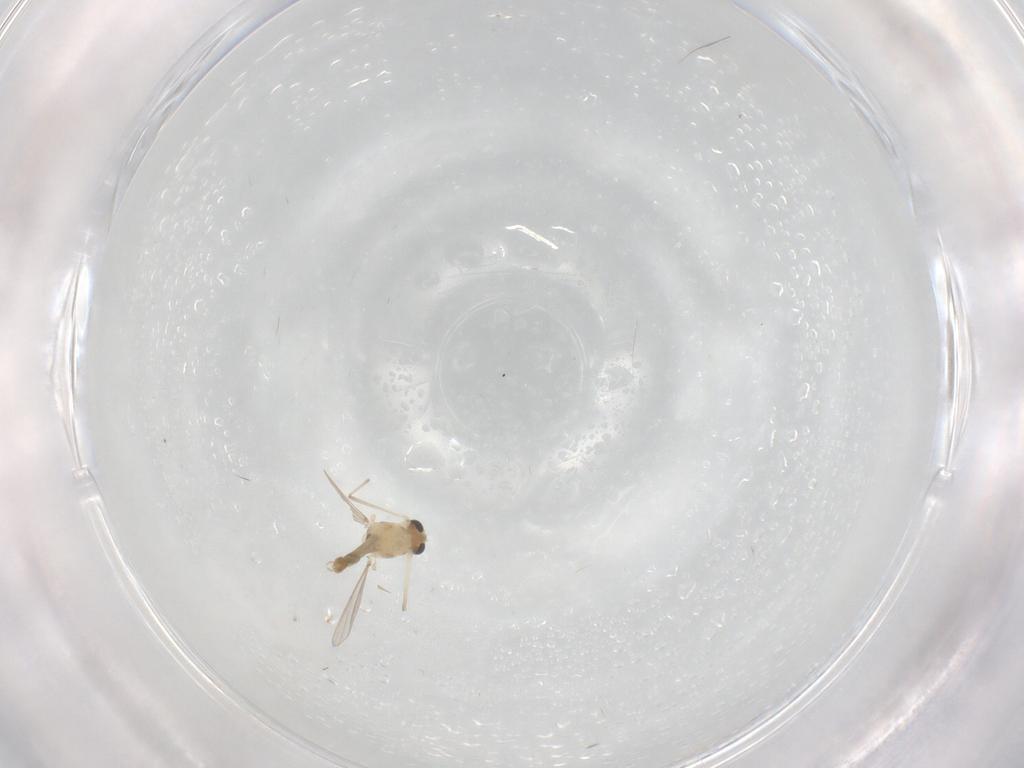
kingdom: Animalia
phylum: Arthropoda
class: Insecta
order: Diptera
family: Chironomidae
